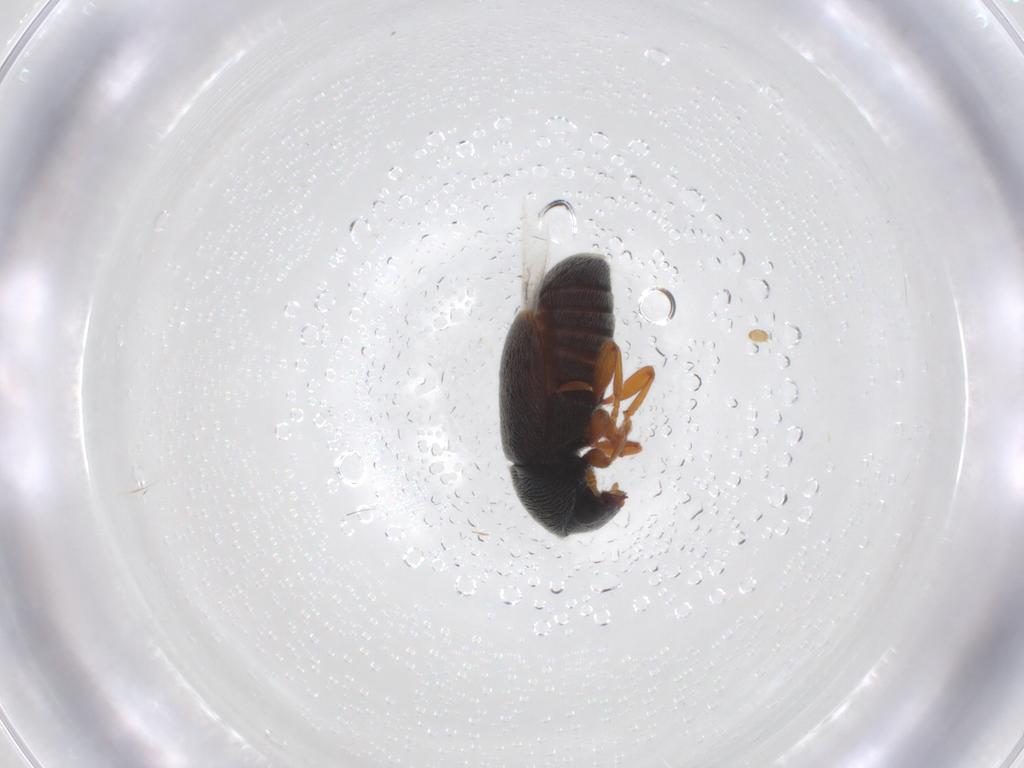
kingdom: Animalia
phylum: Arthropoda
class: Insecta
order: Coleoptera
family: Anthribidae
